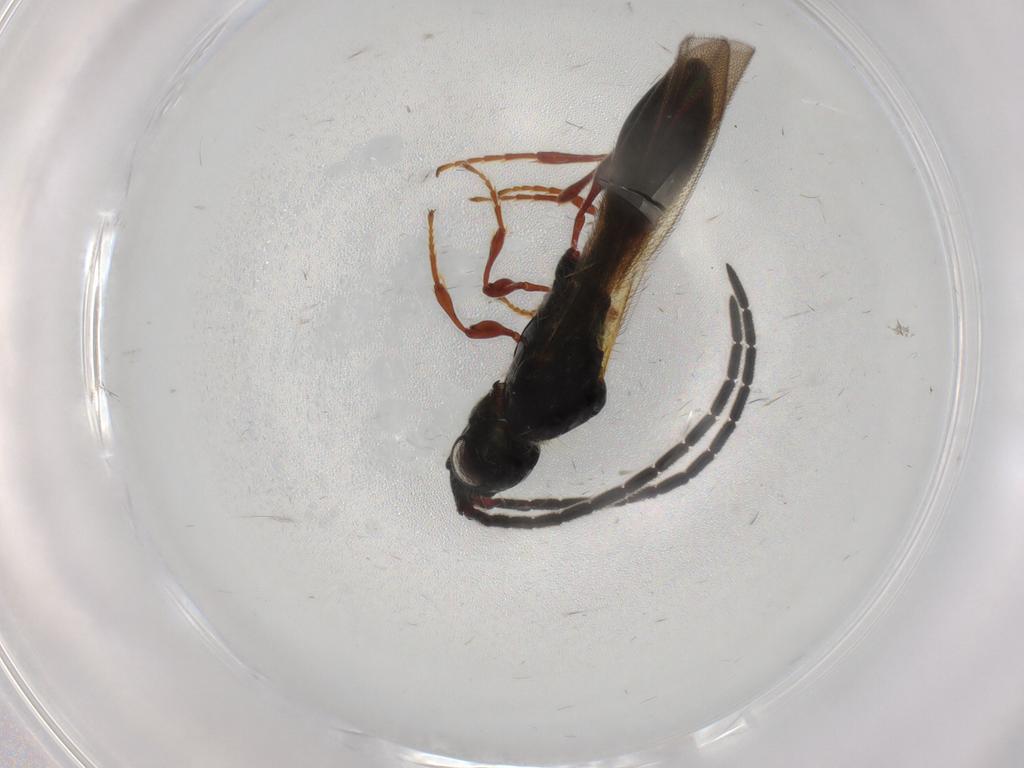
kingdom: Animalia
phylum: Arthropoda
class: Insecta
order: Hymenoptera
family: Diapriidae
